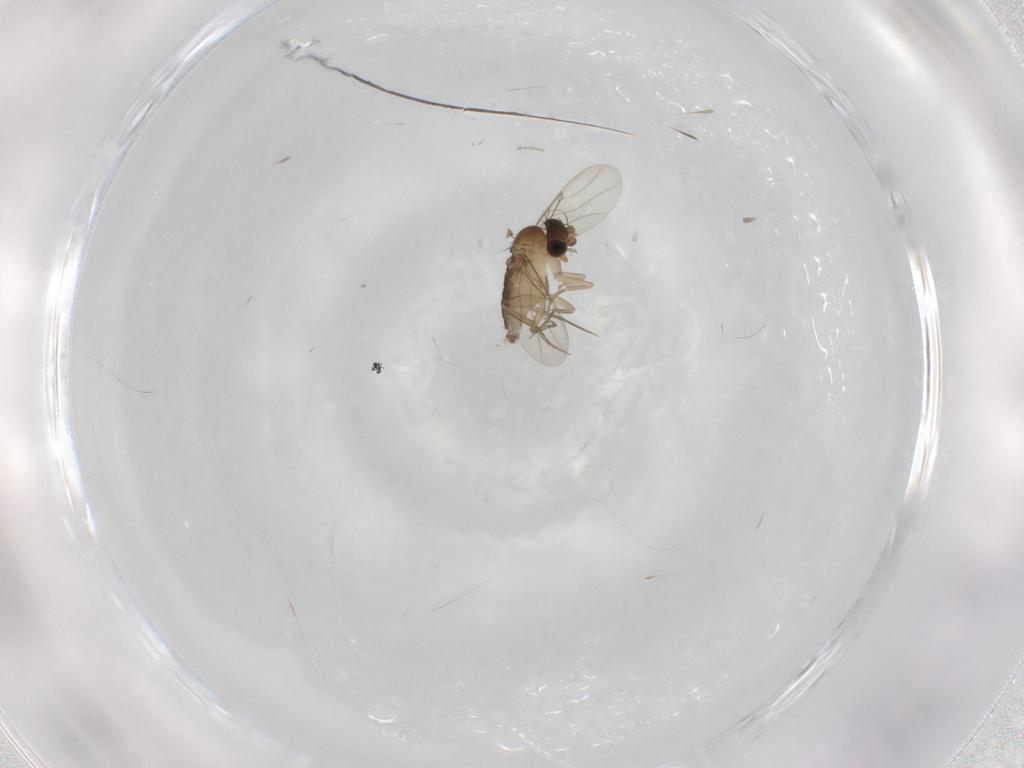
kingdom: Animalia
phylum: Arthropoda
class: Insecta
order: Diptera
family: Phoridae
